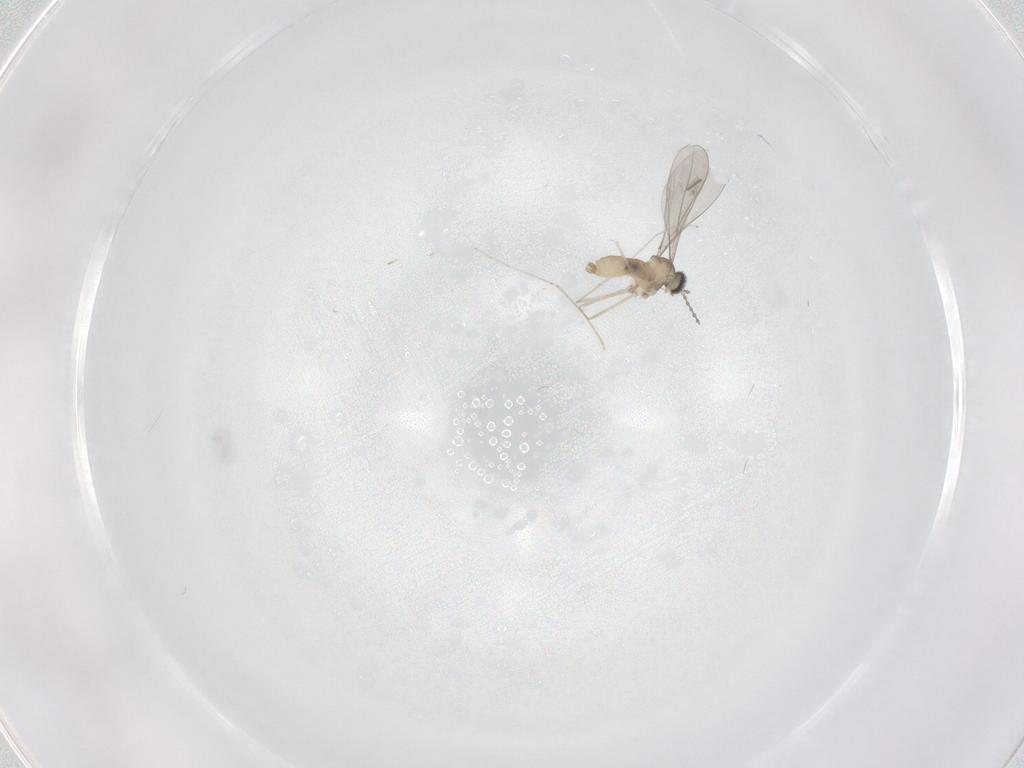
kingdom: Animalia
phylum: Arthropoda
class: Insecta
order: Diptera
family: Cecidomyiidae
